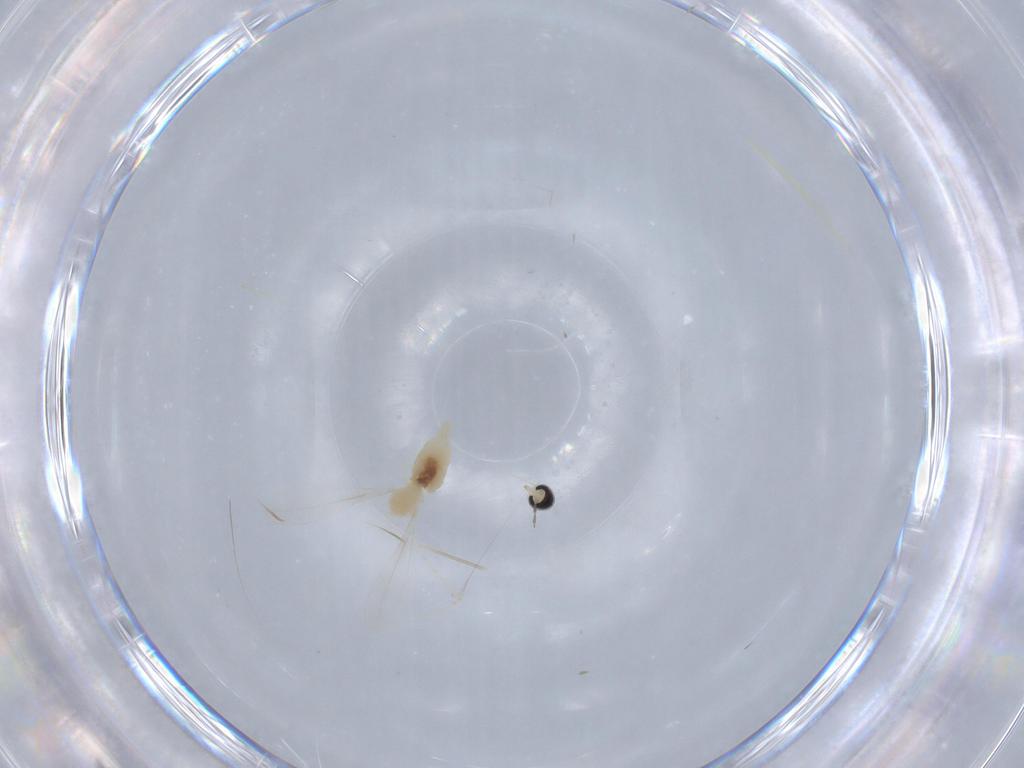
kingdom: Animalia
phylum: Arthropoda
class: Insecta
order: Diptera
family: Cecidomyiidae
